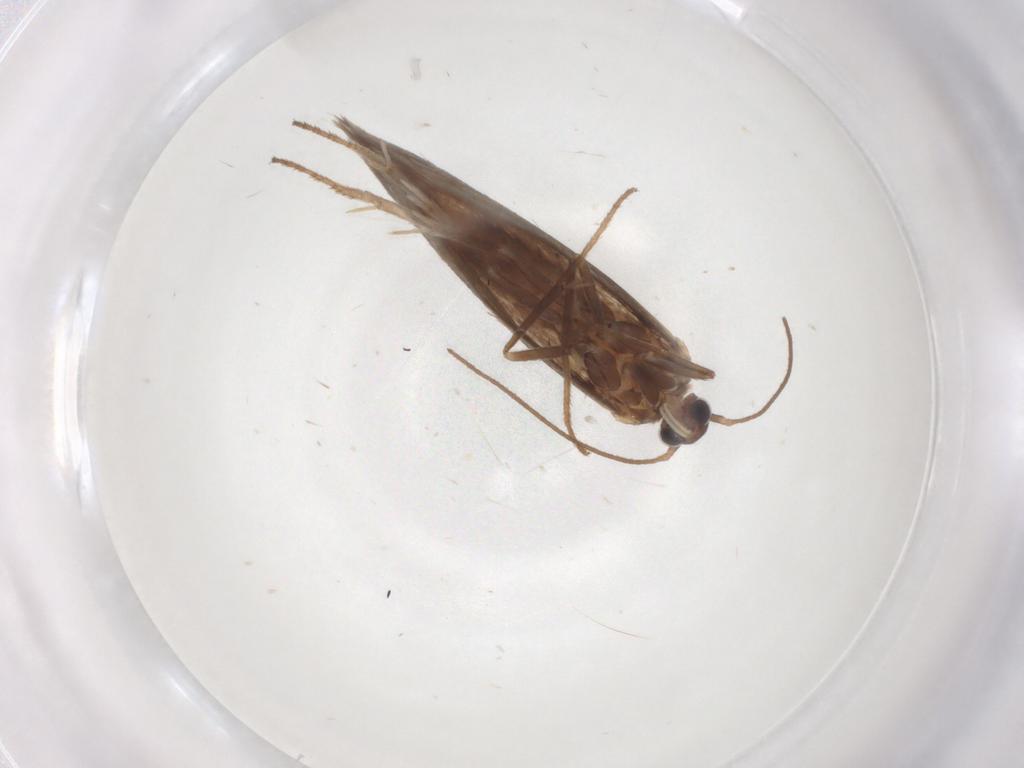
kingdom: Animalia
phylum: Arthropoda
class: Insecta
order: Lepidoptera
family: Limacodidae
